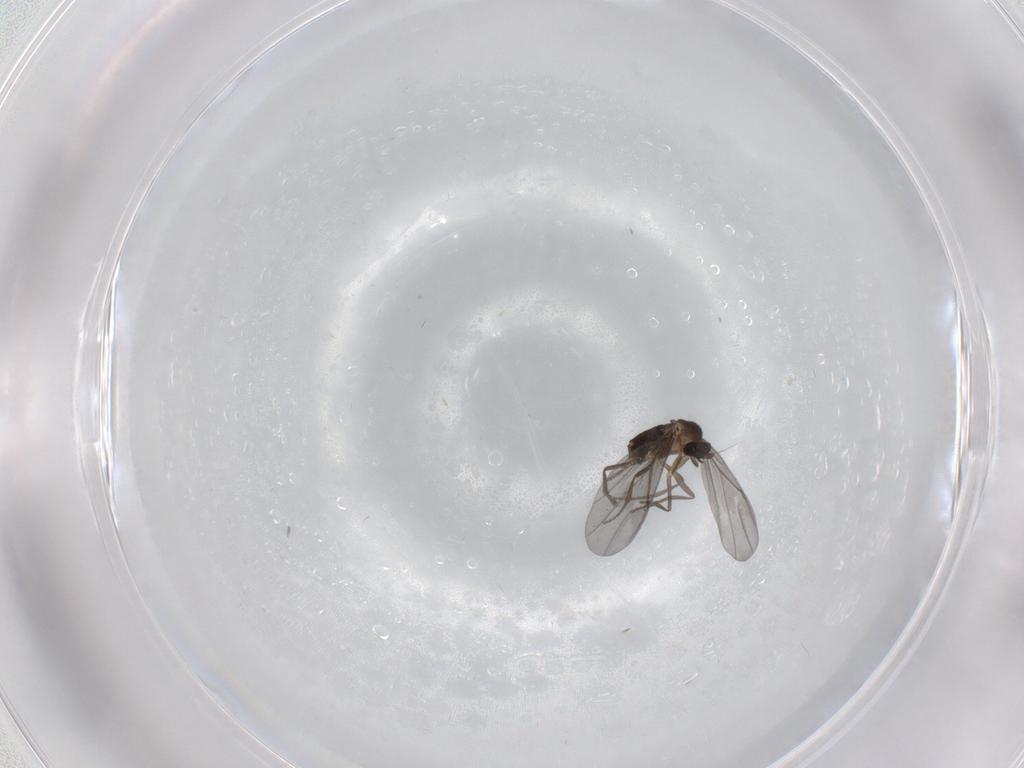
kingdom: Animalia
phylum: Arthropoda
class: Insecta
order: Diptera
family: Phoridae
